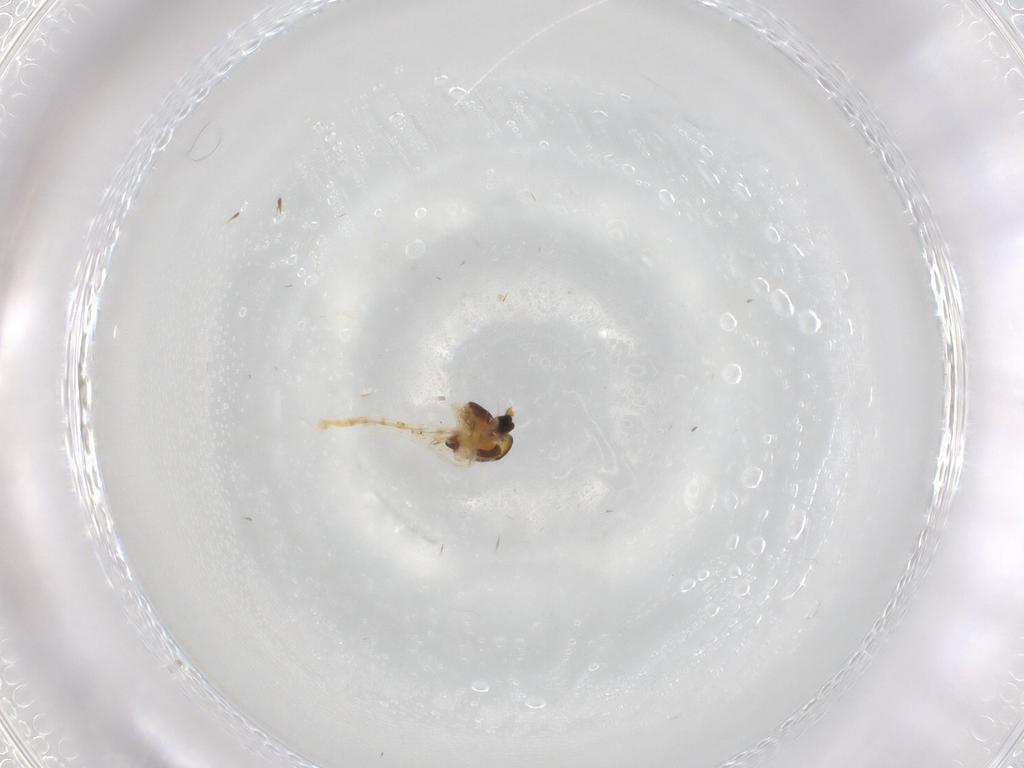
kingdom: Animalia
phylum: Arthropoda
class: Insecta
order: Diptera
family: Chironomidae
